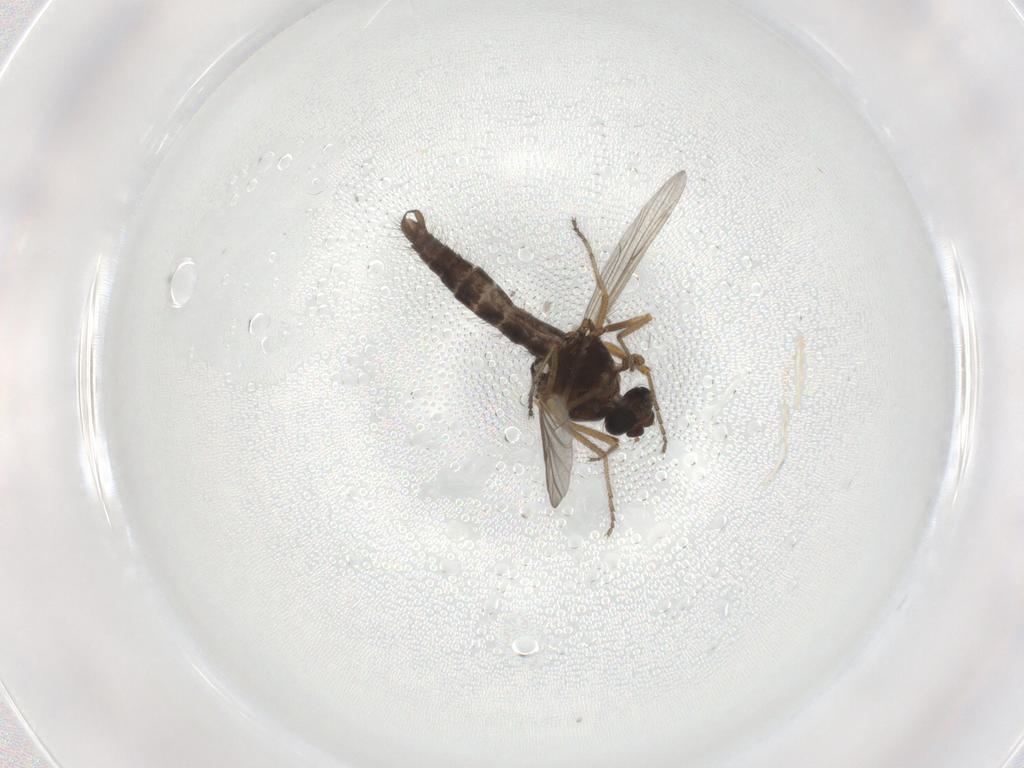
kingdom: Animalia
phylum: Arthropoda
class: Insecta
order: Diptera
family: Ceratopogonidae
